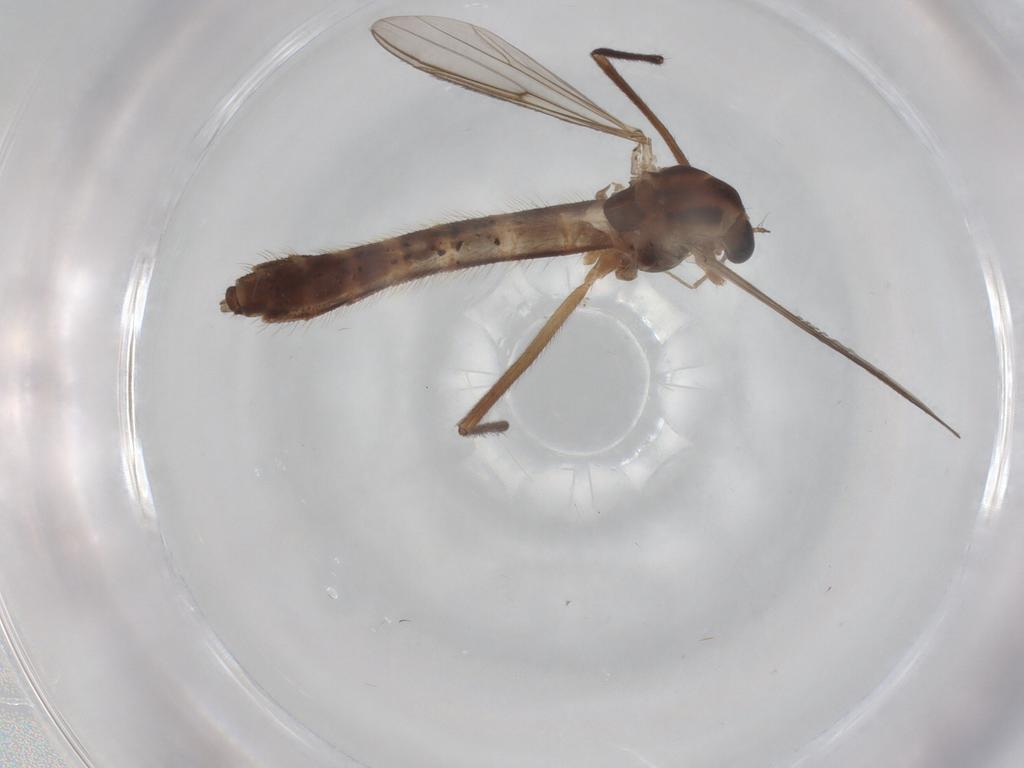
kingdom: Animalia
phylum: Arthropoda
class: Insecta
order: Diptera
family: Chironomidae
